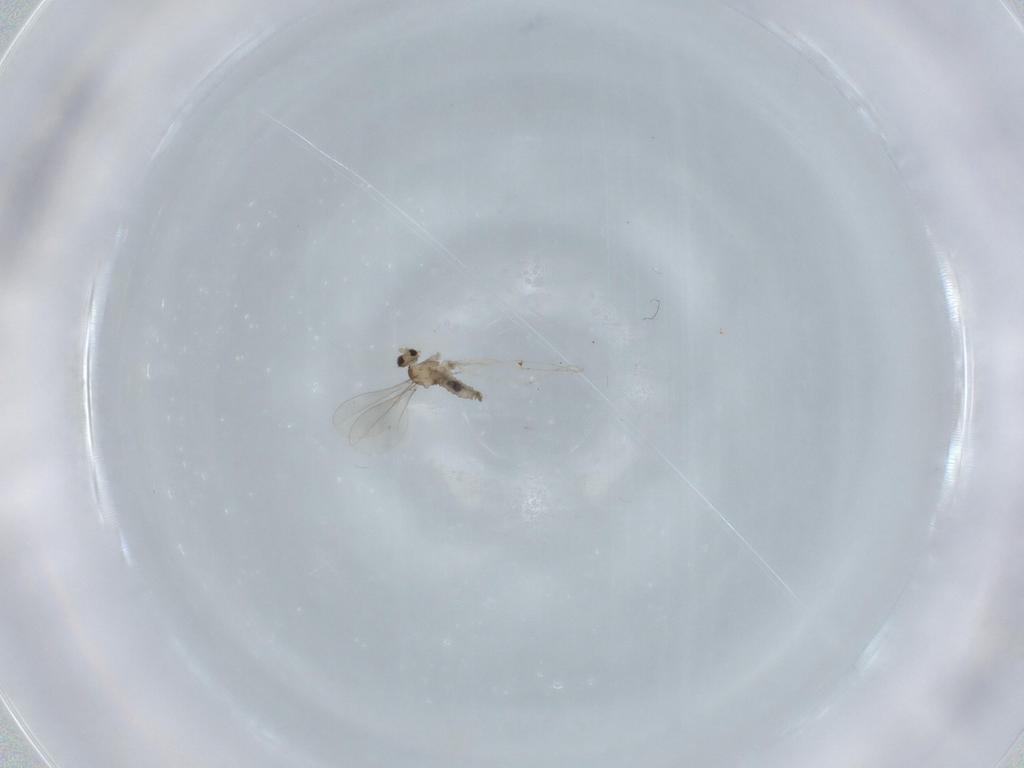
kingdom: Animalia
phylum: Arthropoda
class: Insecta
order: Diptera
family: Cecidomyiidae
